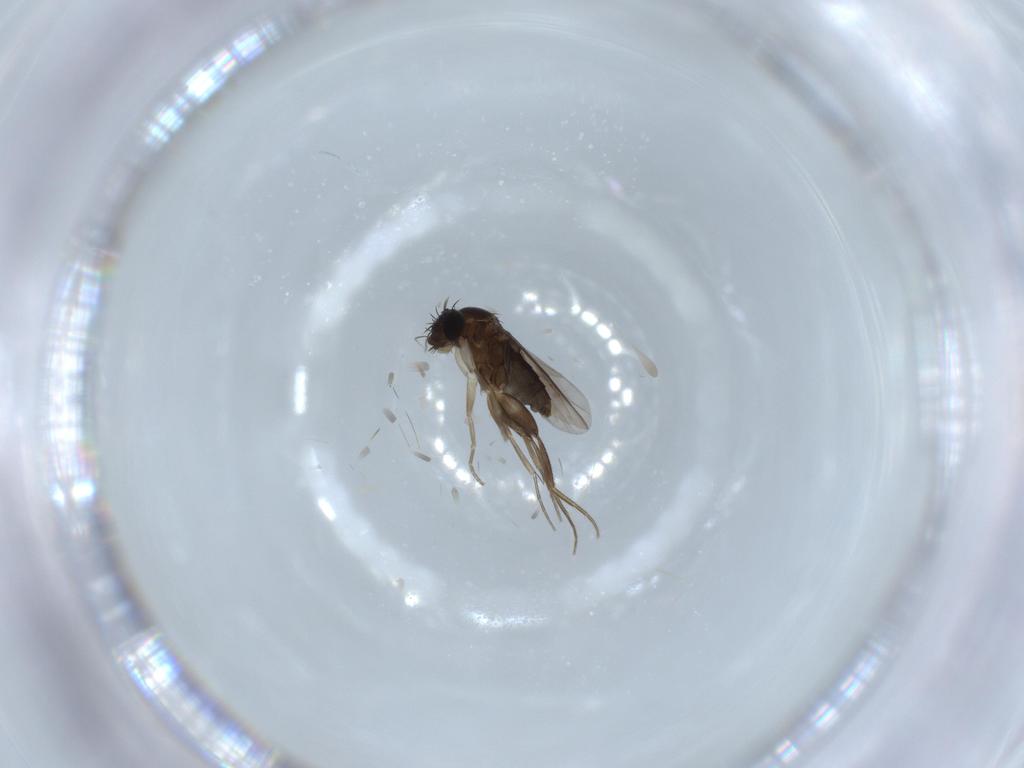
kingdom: Animalia
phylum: Arthropoda
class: Insecta
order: Diptera
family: Phoridae
